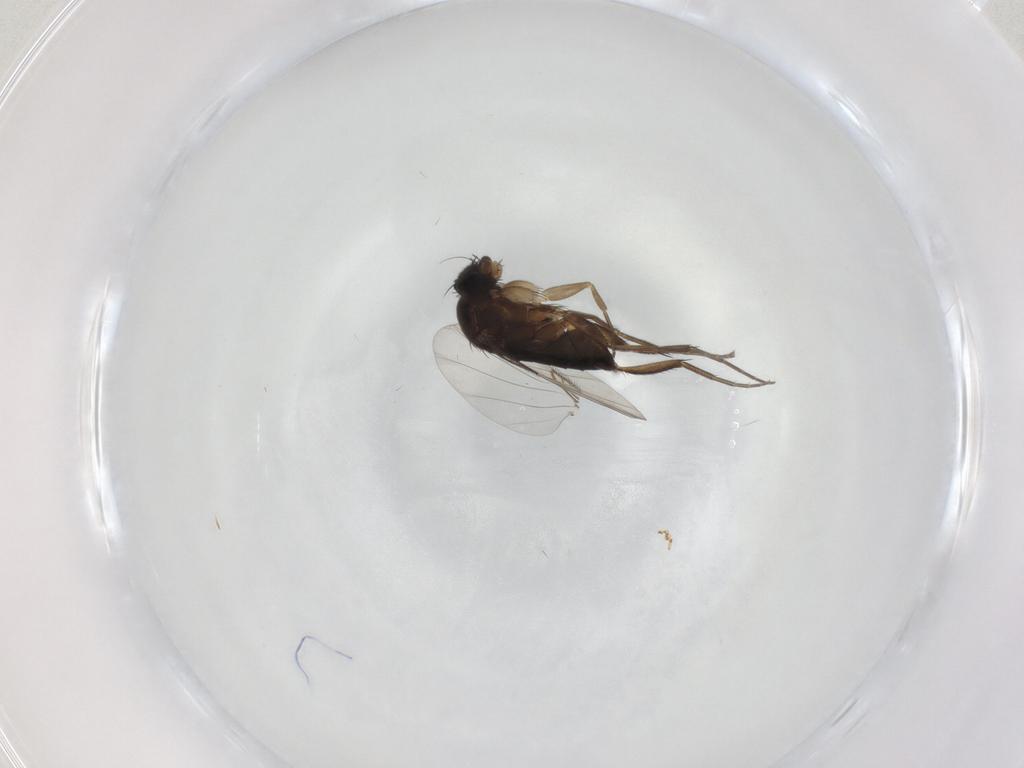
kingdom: Animalia
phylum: Arthropoda
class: Insecta
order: Diptera
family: Phoridae
